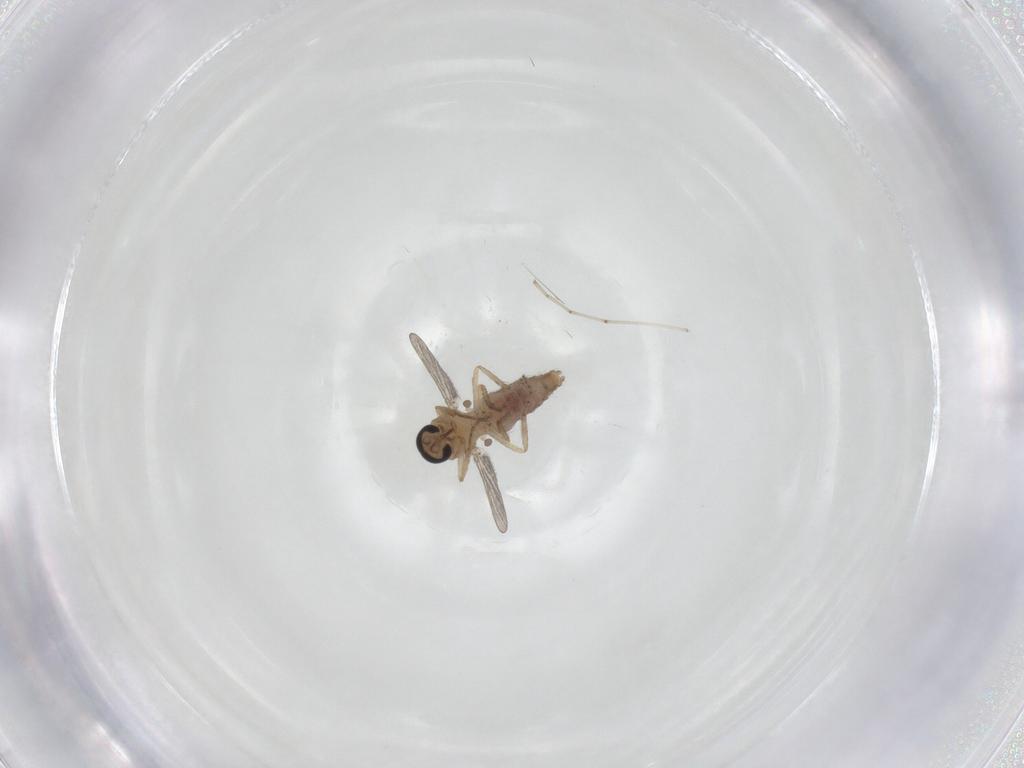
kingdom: Animalia
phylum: Arthropoda
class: Insecta
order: Diptera
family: Ceratopogonidae
